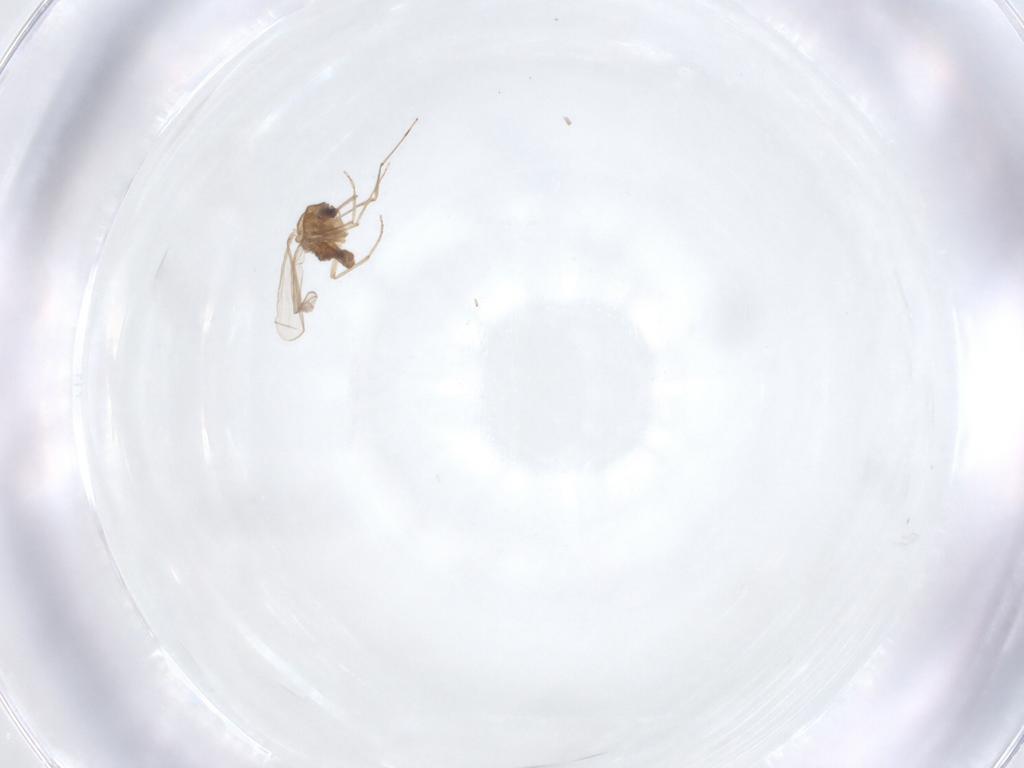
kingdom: Animalia
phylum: Arthropoda
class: Insecta
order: Diptera
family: Chironomidae
